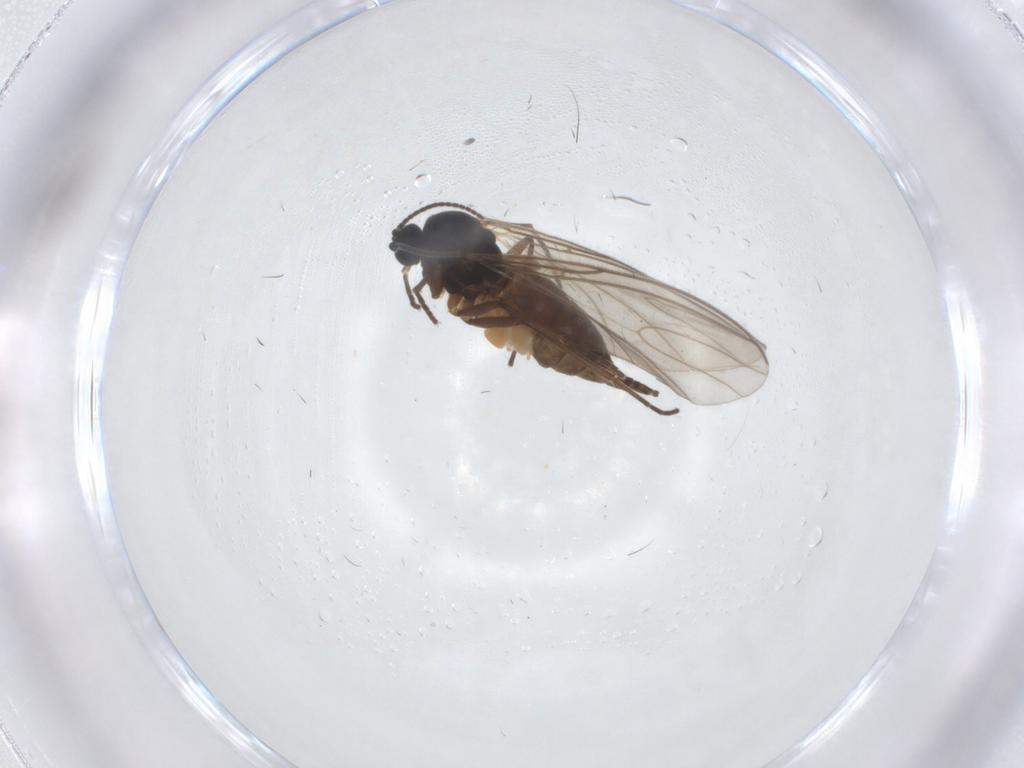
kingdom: Animalia
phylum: Arthropoda
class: Insecta
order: Diptera
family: Sciaridae
